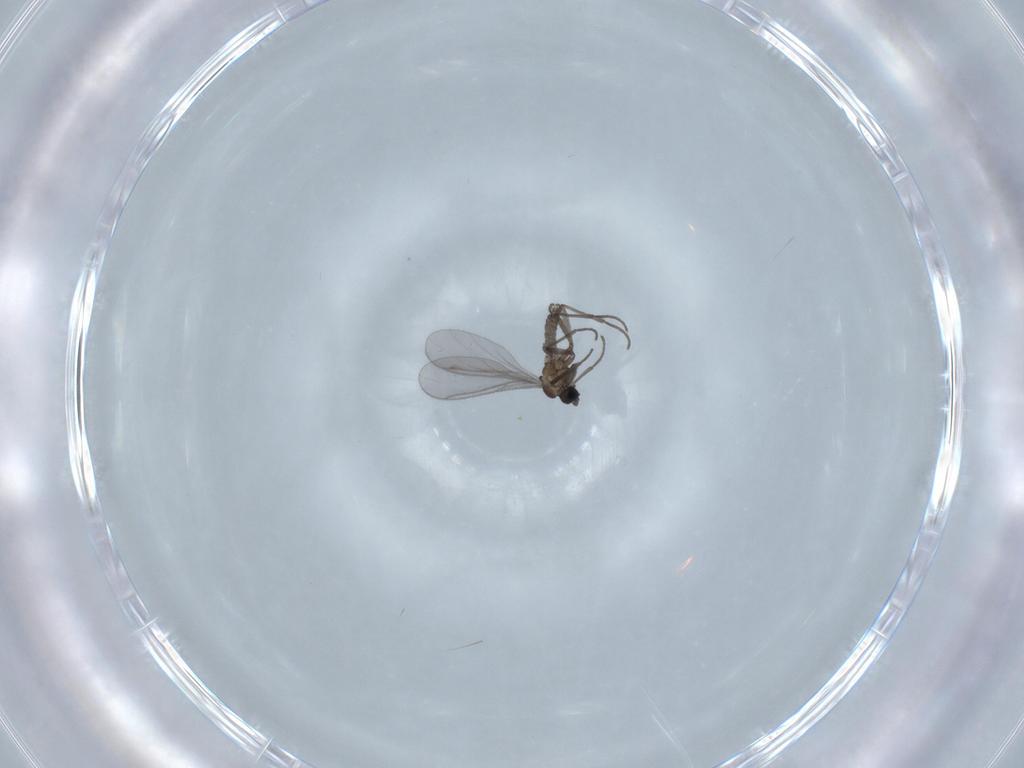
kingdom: Animalia
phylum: Arthropoda
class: Insecta
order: Diptera
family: Sciaridae
